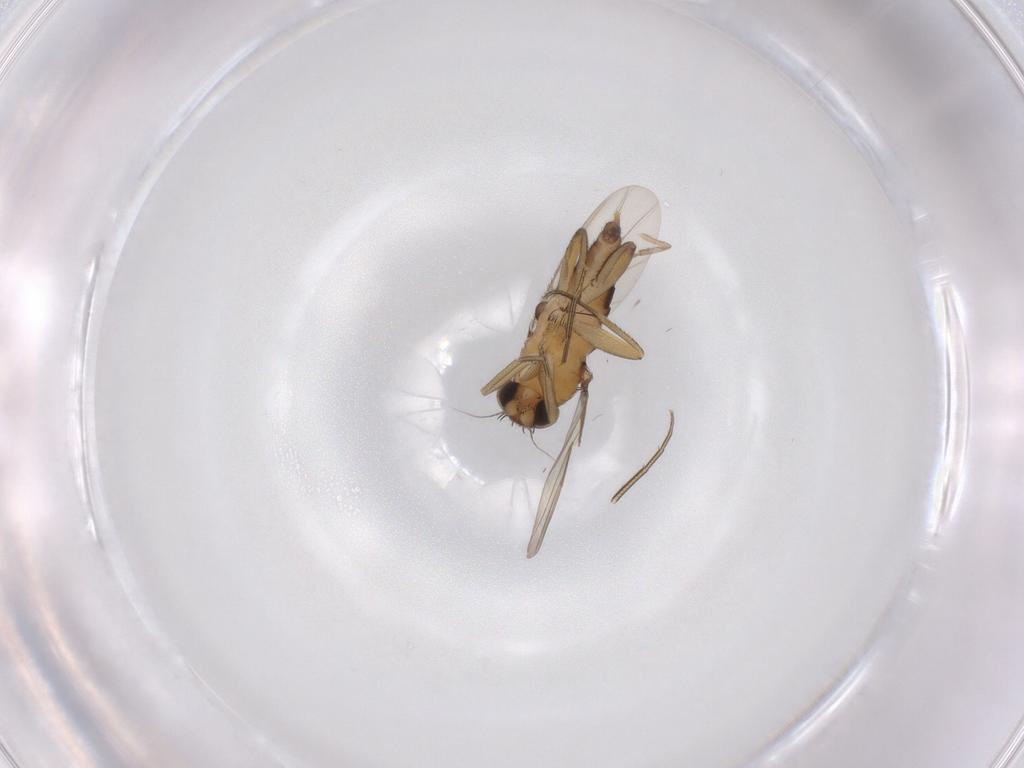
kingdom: Animalia
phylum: Arthropoda
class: Insecta
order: Diptera
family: Phoridae
